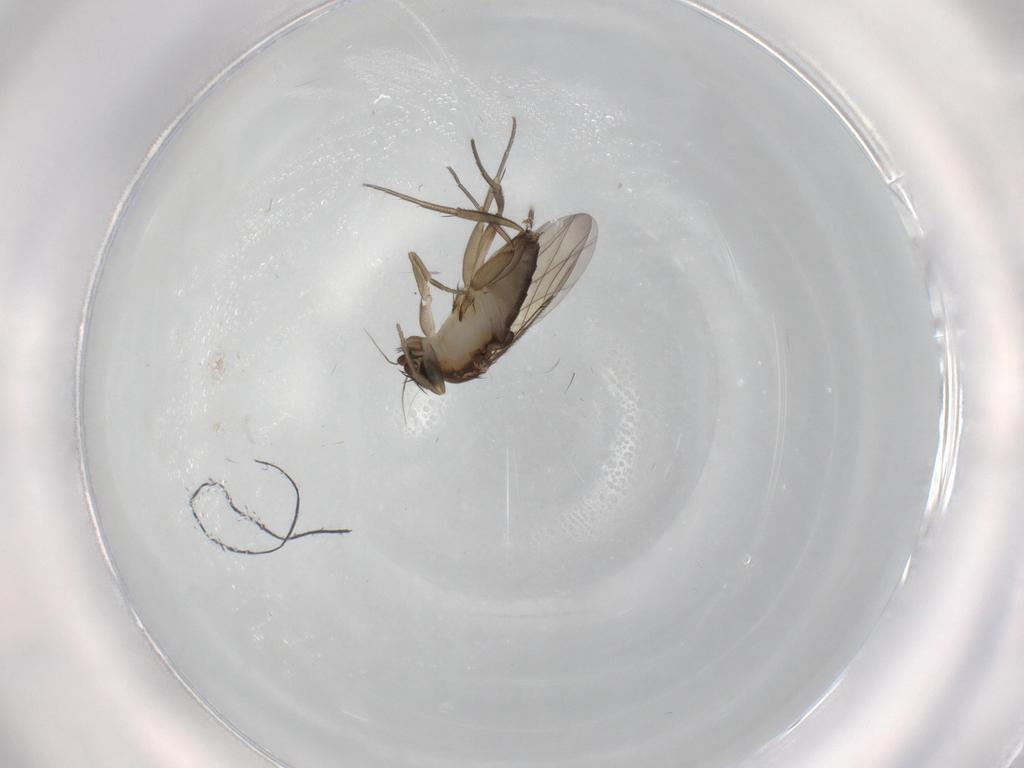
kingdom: Animalia
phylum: Arthropoda
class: Insecta
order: Diptera
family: Phoridae
